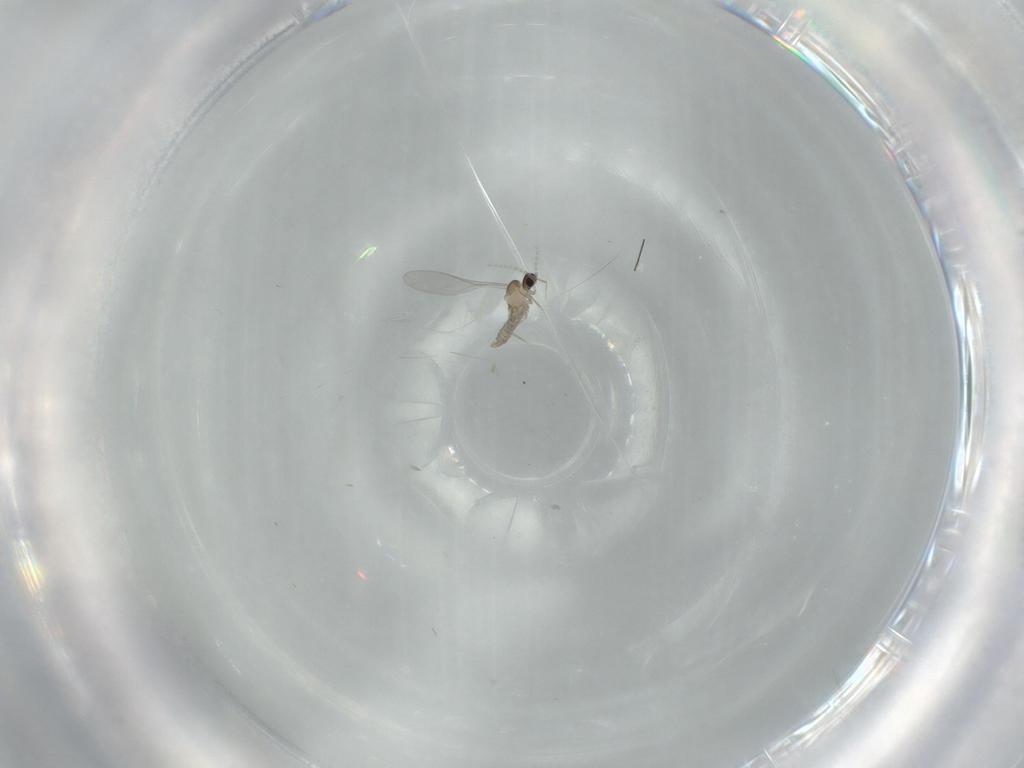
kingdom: Animalia
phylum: Arthropoda
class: Insecta
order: Diptera
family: Cecidomyiidae
